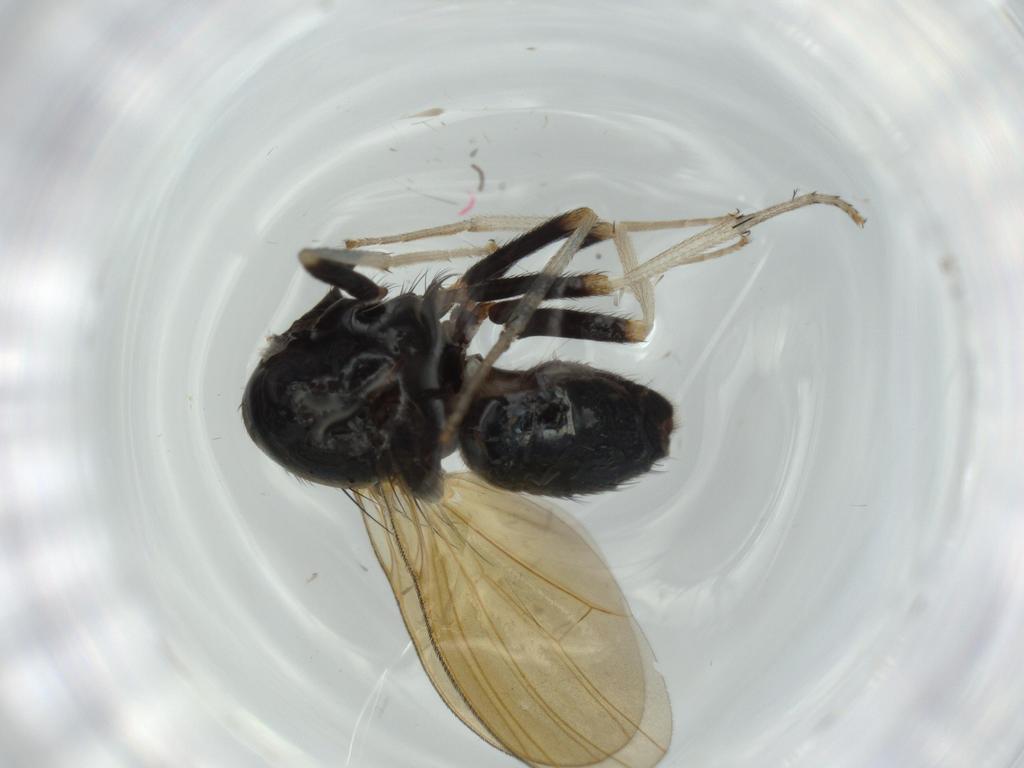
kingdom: Animalia
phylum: Arthropoda
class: Insecta
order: Diptera
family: Cecidomyiidae
